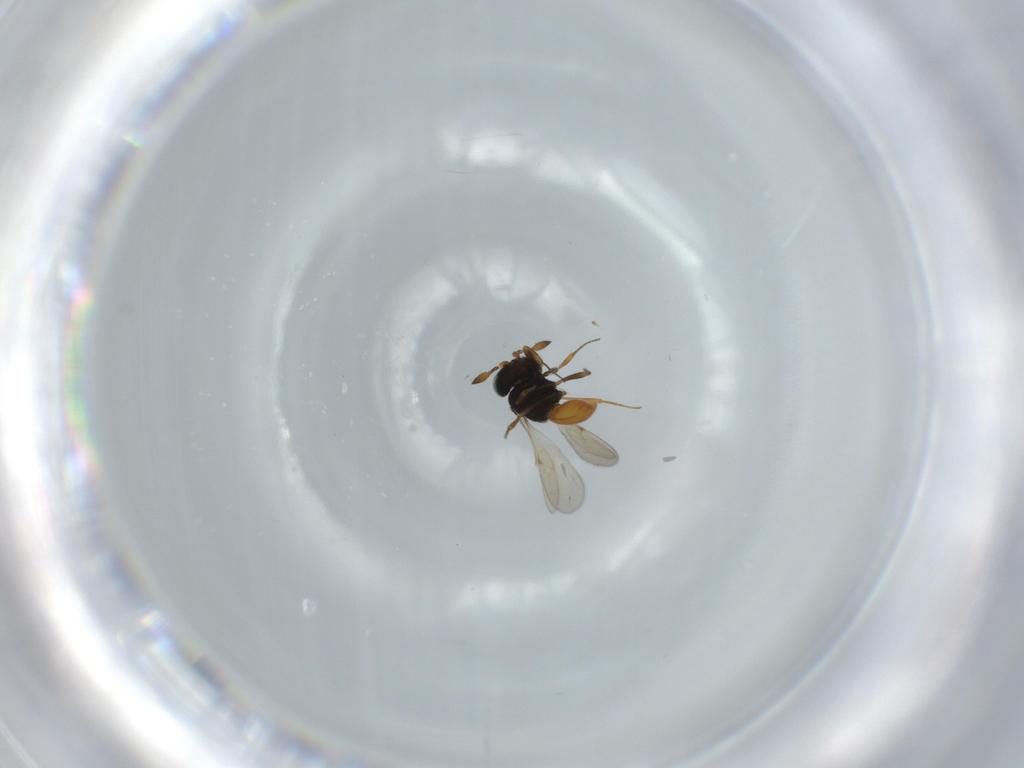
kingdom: Animalia
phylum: Arthropoda
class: Insecta
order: Hymenoptera
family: Scelionidae
